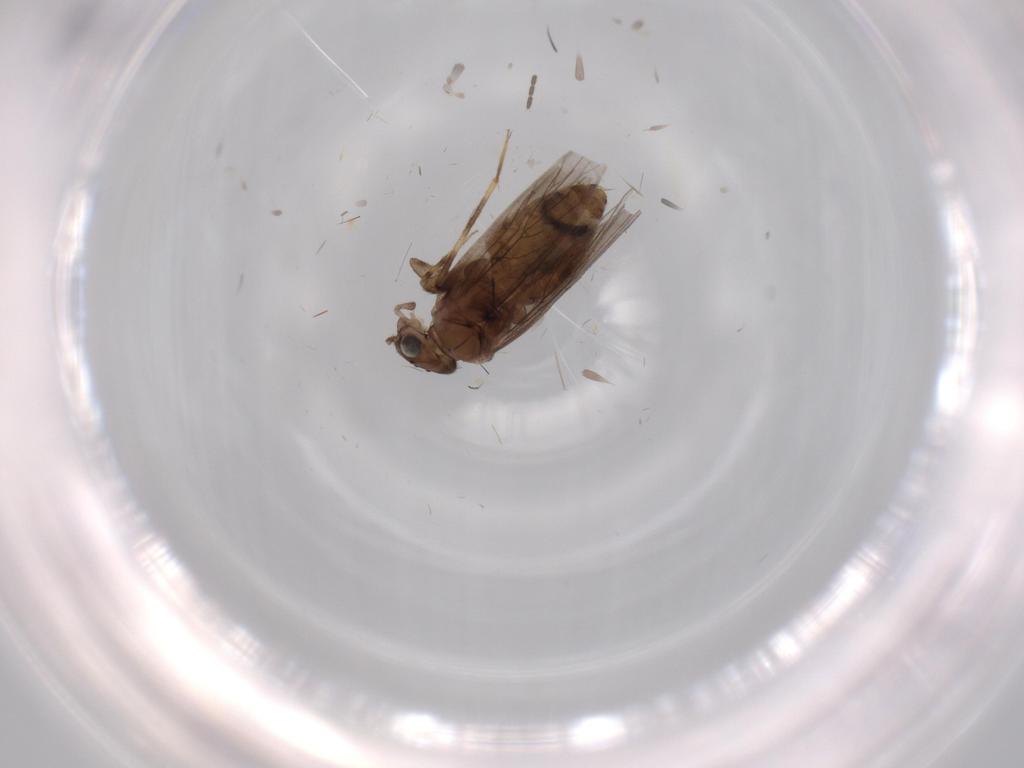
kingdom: Animalia
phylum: Arthropoda
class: Insecta
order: Psocodea
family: Lepidopsocidae
